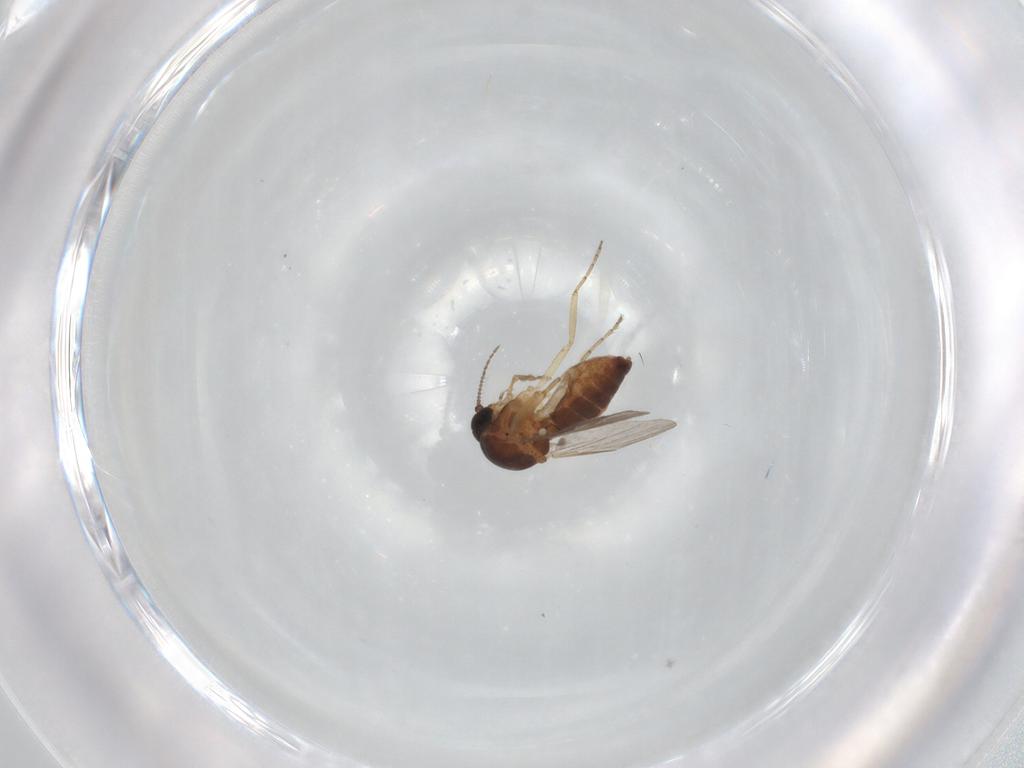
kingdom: Animalia
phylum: Arthropoda
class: Insecta
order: Diptera
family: Ceratopogonidae
